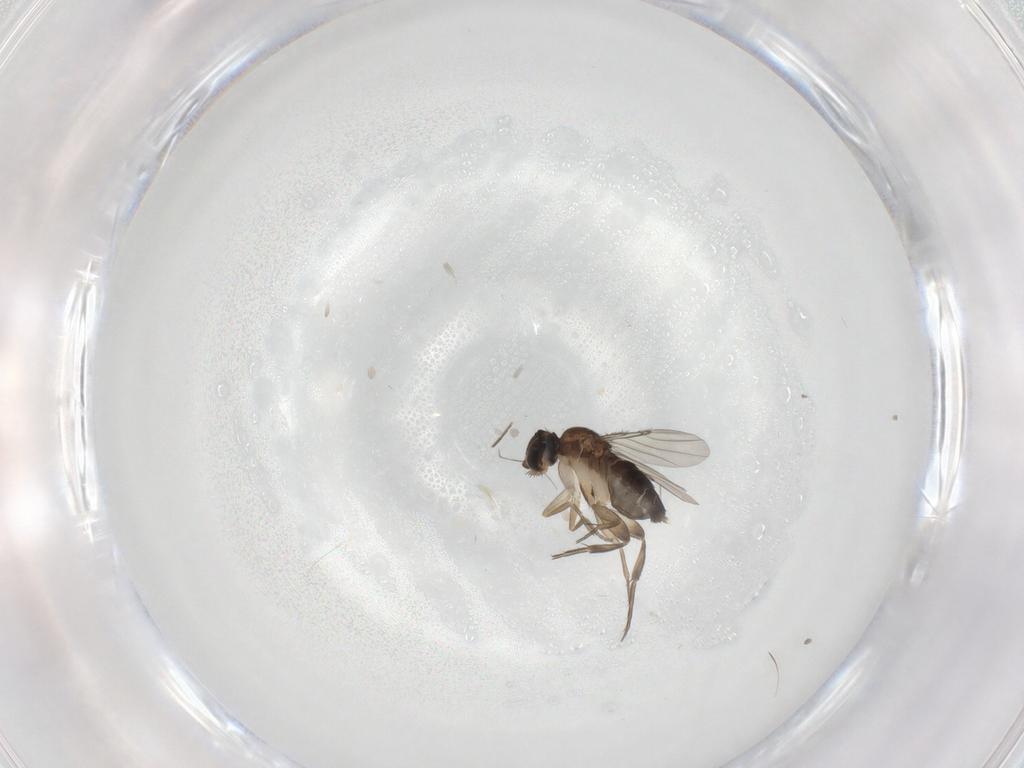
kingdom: Animalia
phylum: Arthropoda
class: Insecta
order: Diptera
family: Phoridae
